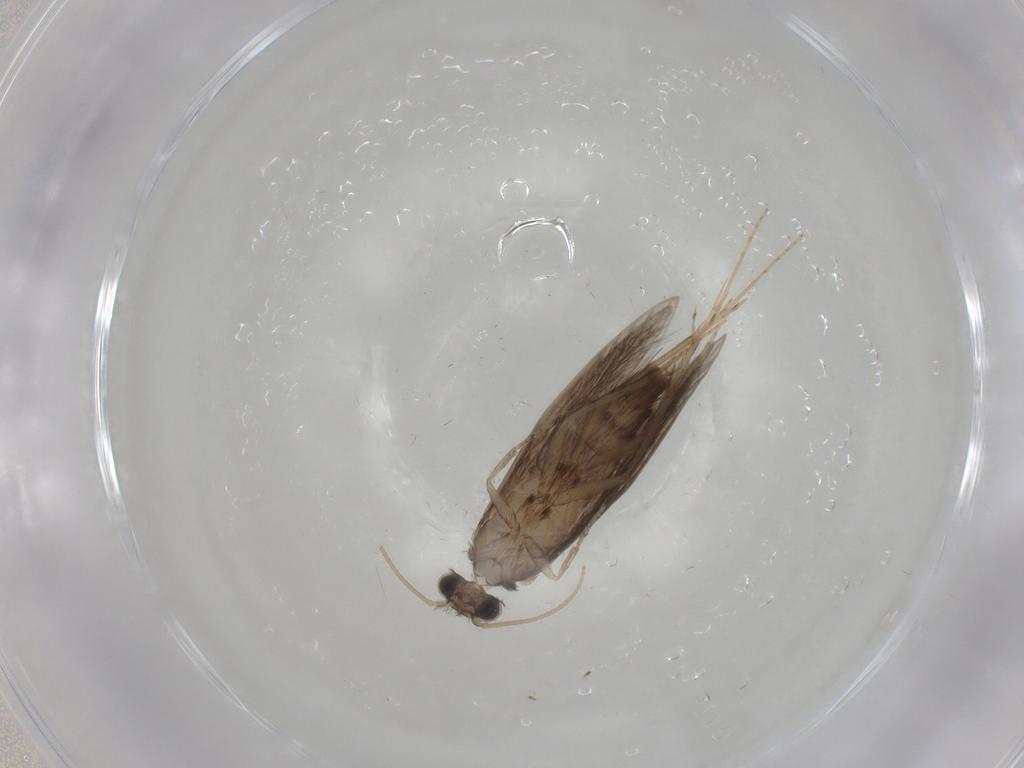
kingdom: Animalia
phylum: Arthropoda
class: Insecta
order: Trichoptera
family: Hydroptilidae
